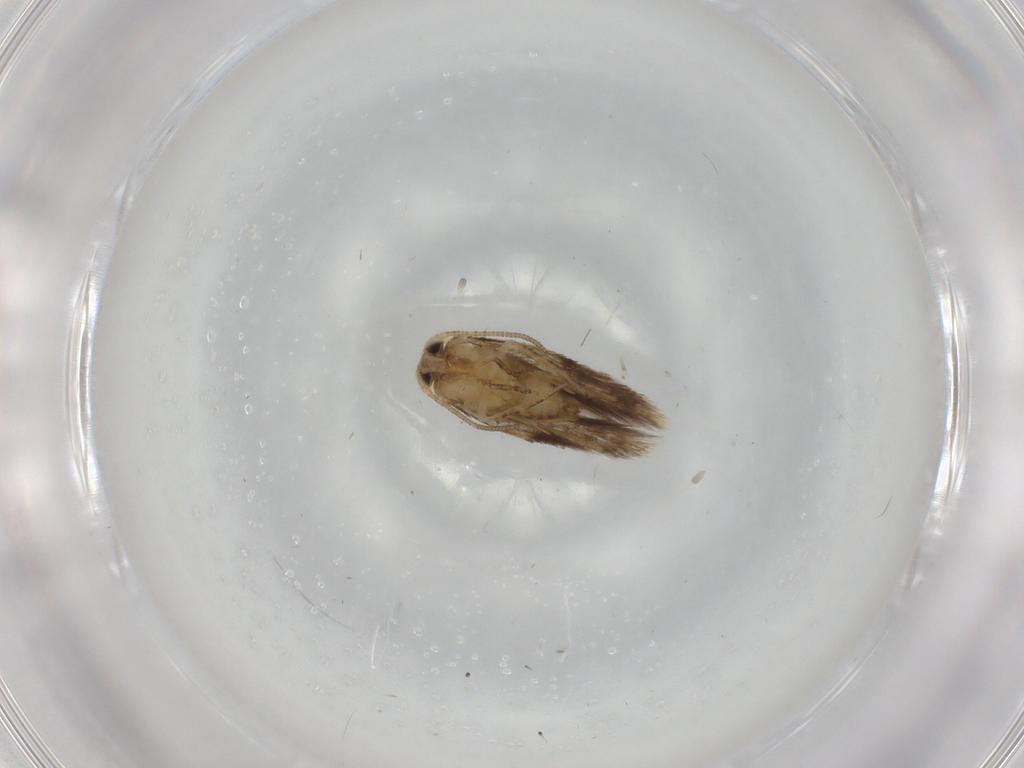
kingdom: Animalia
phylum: Arthropoda
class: Insecta
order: Lepidoptera
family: Nepticulidae
